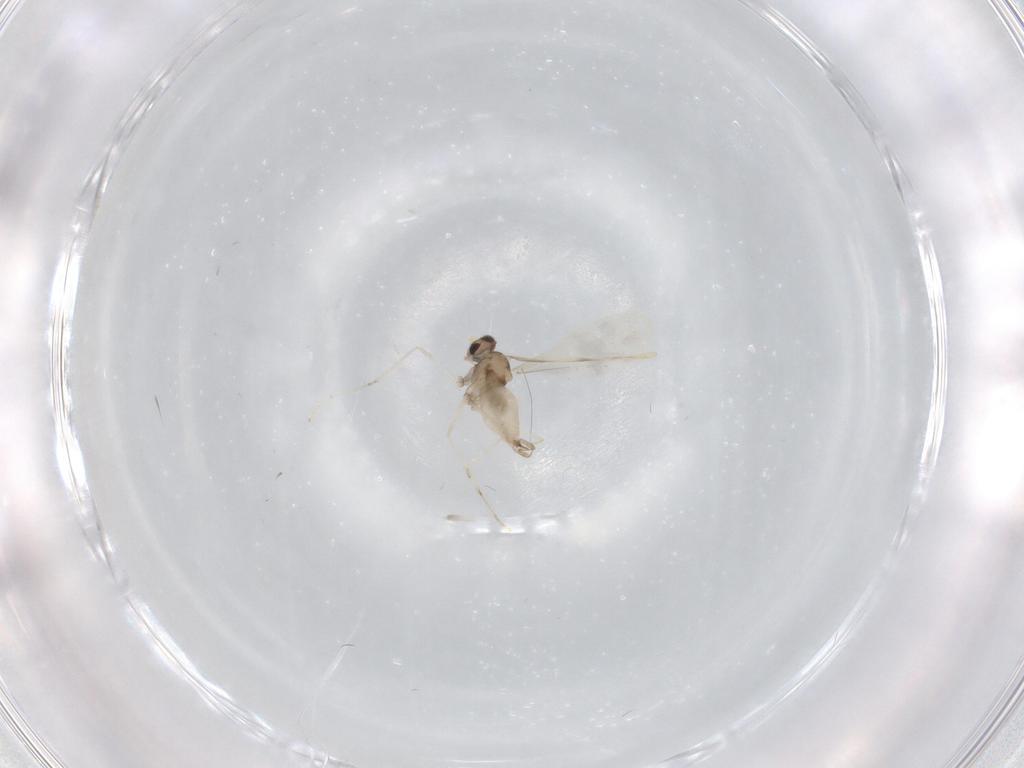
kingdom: Animalia
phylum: Arthropoda
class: Insecta
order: Diptera
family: Cecidomyiidae
